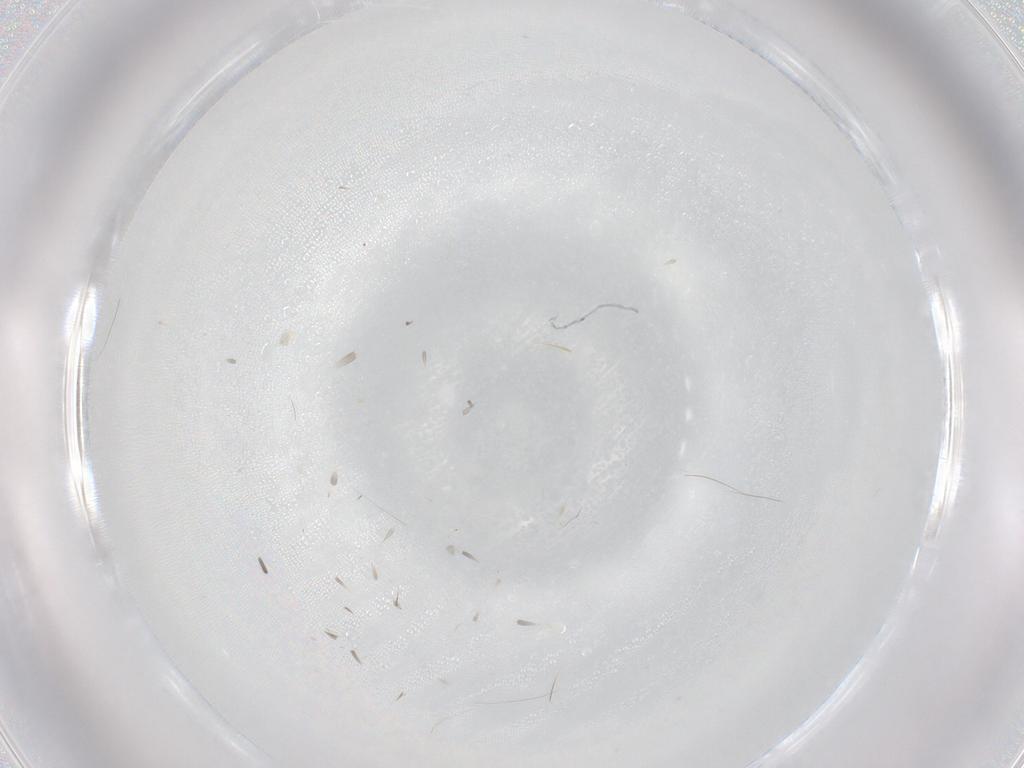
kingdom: Animalia
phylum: Arthropoda
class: Insecta
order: Diptera
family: Psychodidae
